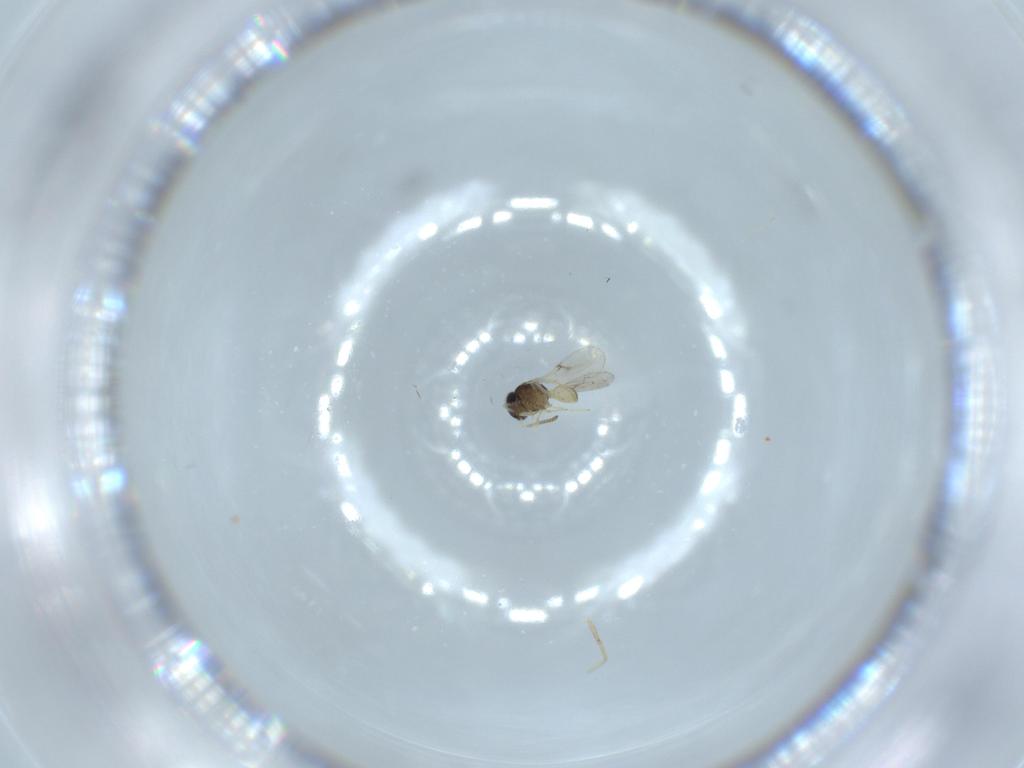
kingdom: Animalia
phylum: Arthropoda
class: Insecta
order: Hymenoptera
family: Scelionidae
